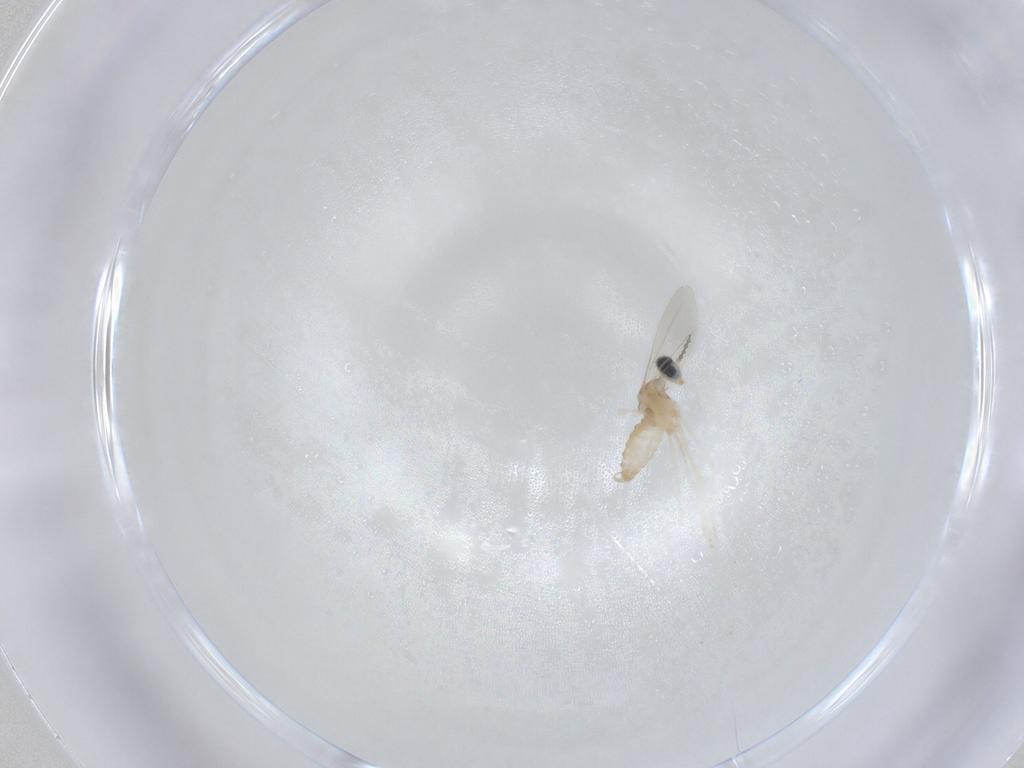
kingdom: Animalia
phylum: Arthropoda
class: Insecta
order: Diptera
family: Cecidomyiidae
